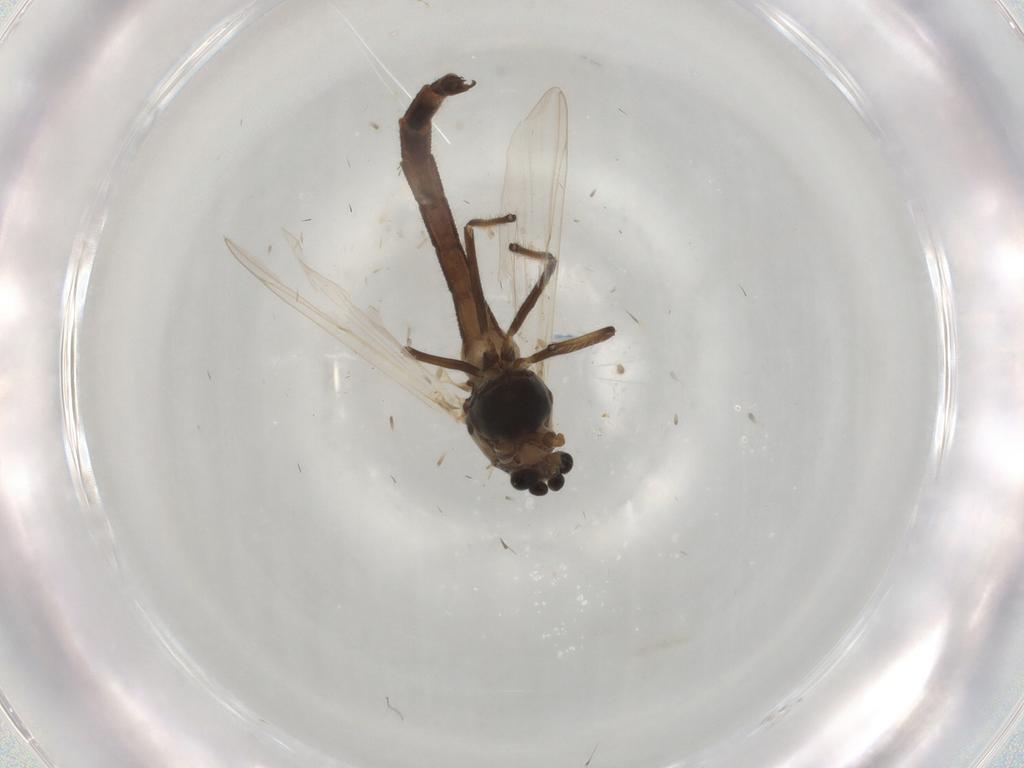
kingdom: Animalia
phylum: Arthropoda
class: Insecta
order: Diptera
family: Chironomidae
